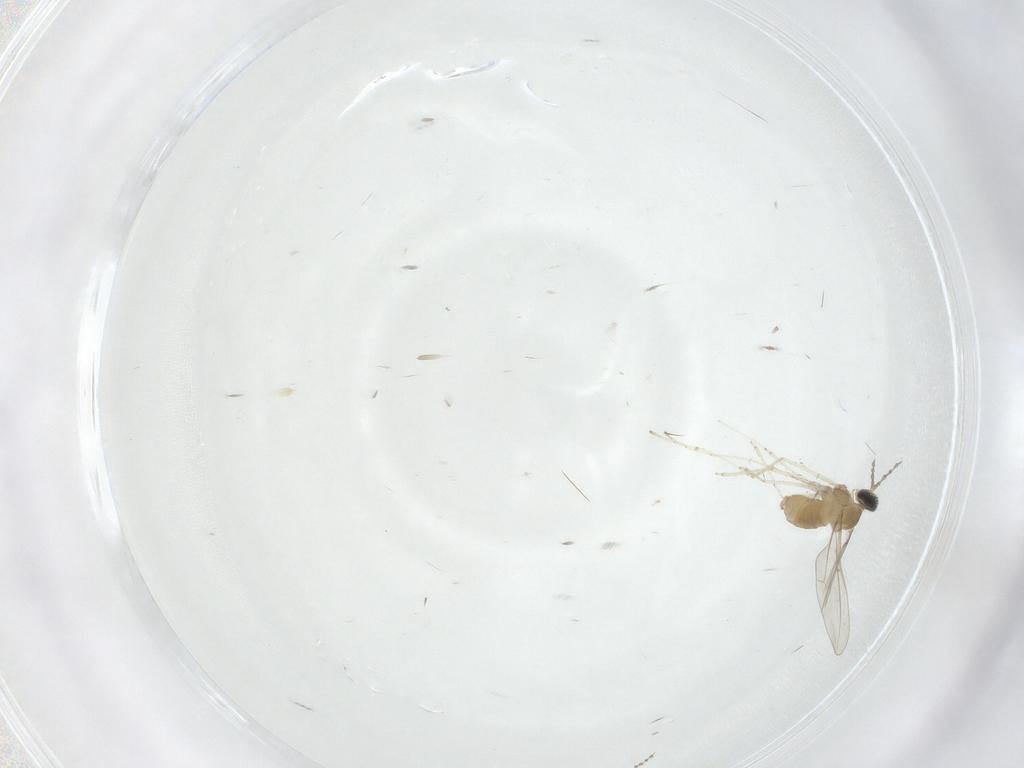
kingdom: Animalia
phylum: Arthropoda
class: Insecta
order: Diptera
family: Cecidomyiidae
